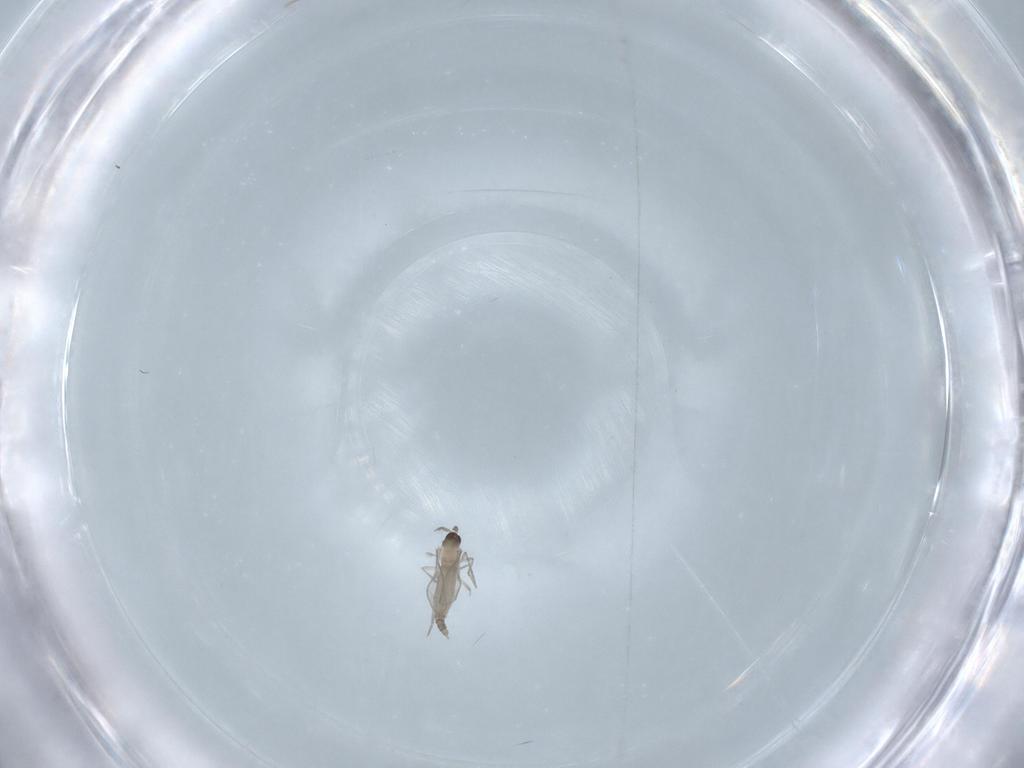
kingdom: Animalia
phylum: Arthropoda
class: Insecta
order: Diptera
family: Cecidomyiidae
